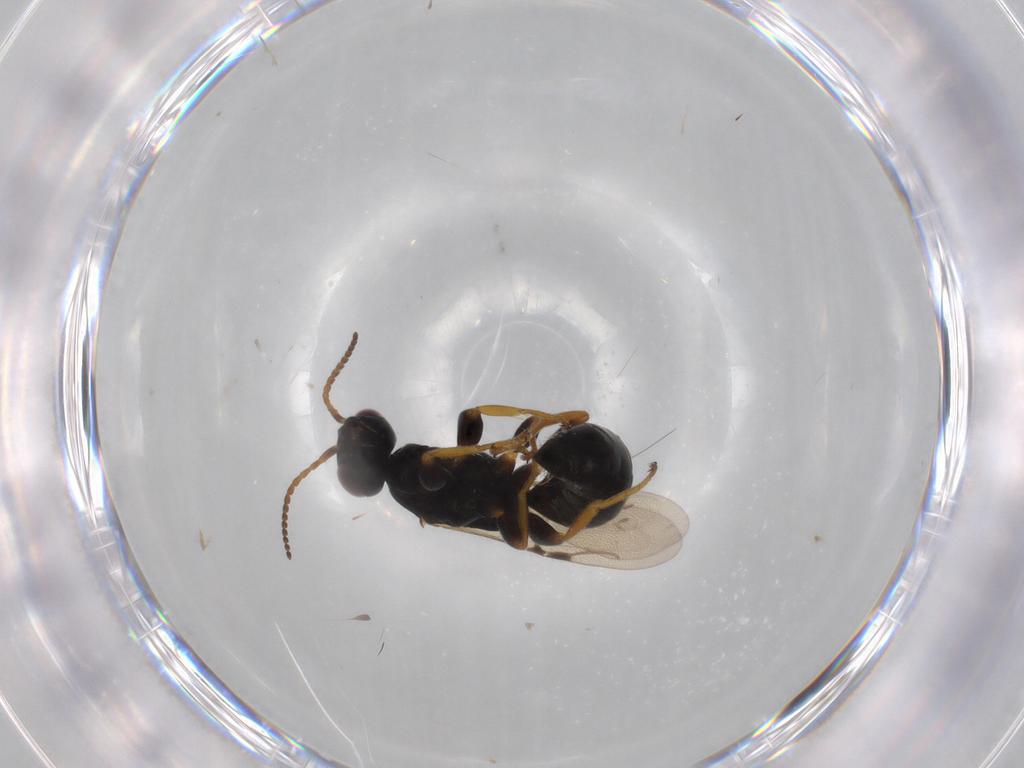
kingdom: Animalia
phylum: Arthropoda
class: Insecta
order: Hymenoptera
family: Bethylidae
